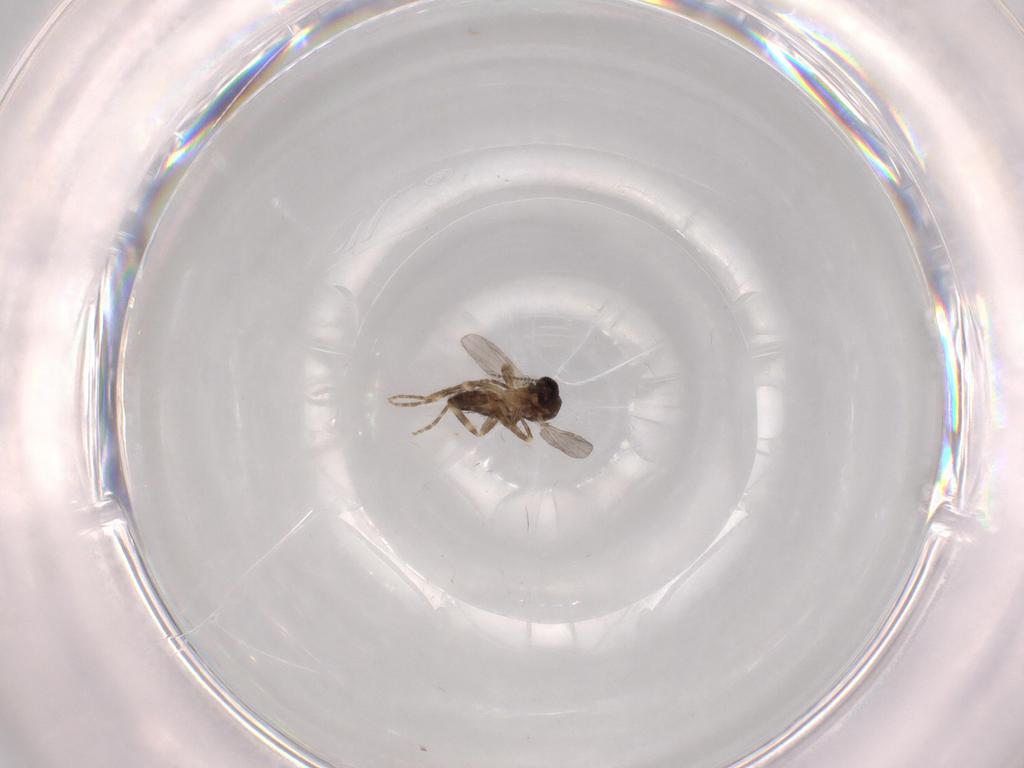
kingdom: Animalia
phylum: Arthropoda
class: Insecta
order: Diptera
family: Ceratopogonidae
